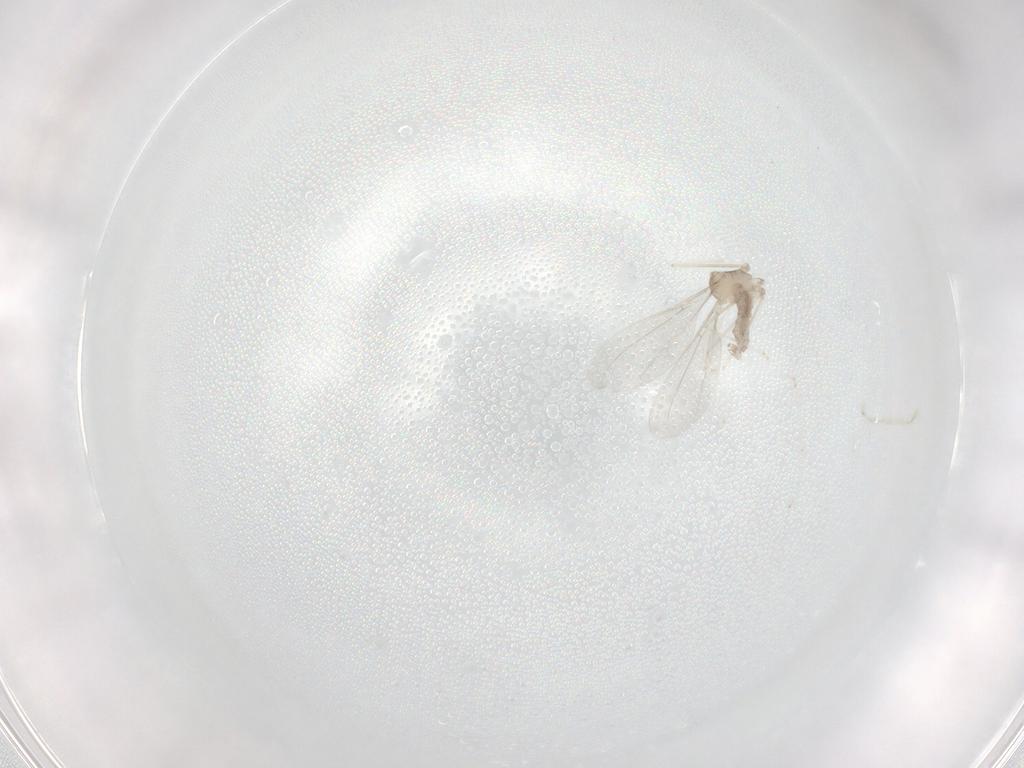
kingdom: Animalia
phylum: Arthropoda
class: Insecta
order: Diptera
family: Cecidomyiidae
